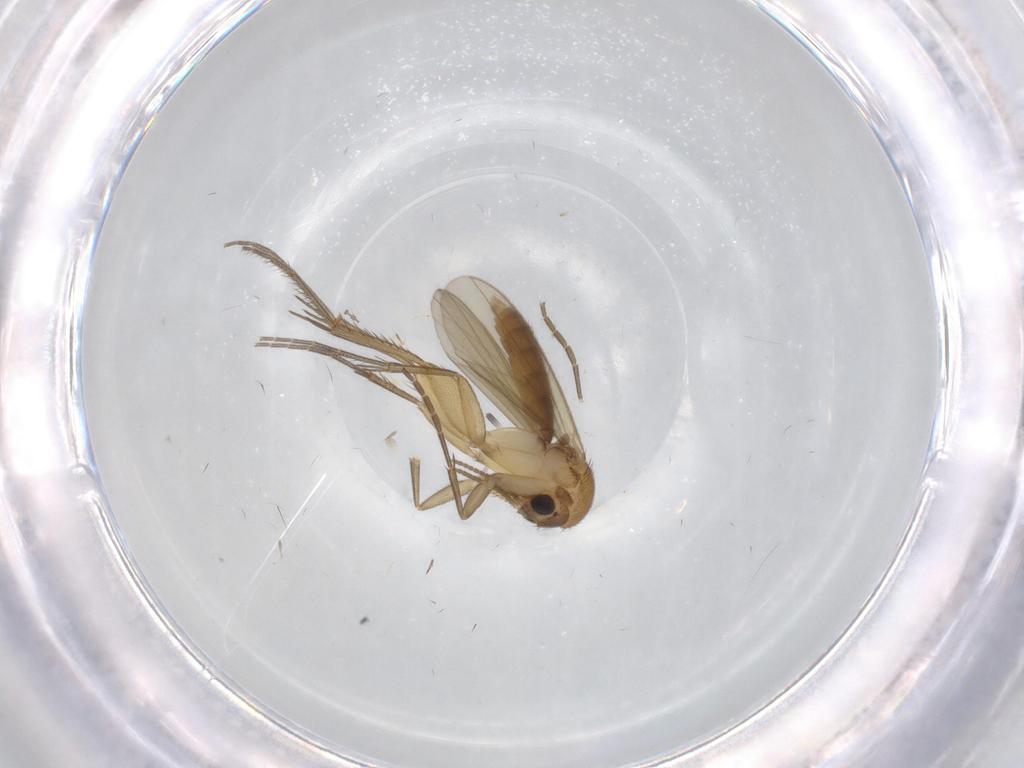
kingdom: Animalia
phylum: Arthropoda
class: Insecta
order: Diptera
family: Mycetophilidae
